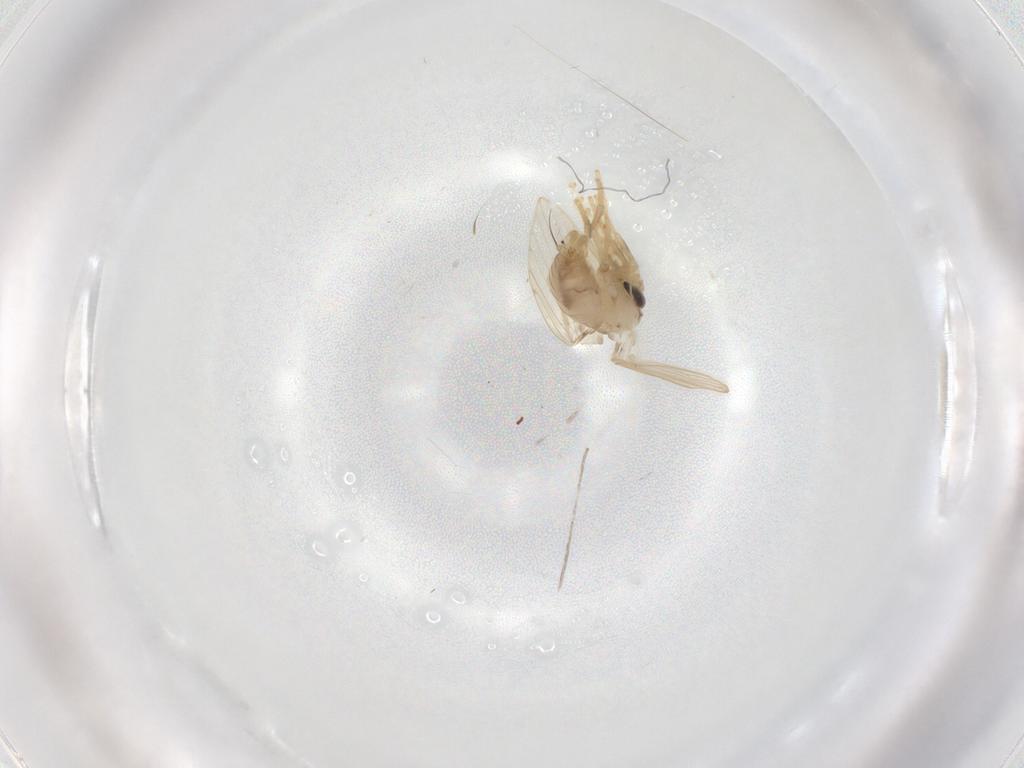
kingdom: Animalia
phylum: Arthropoda
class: Insecta
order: Diptera
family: Psychodidae
